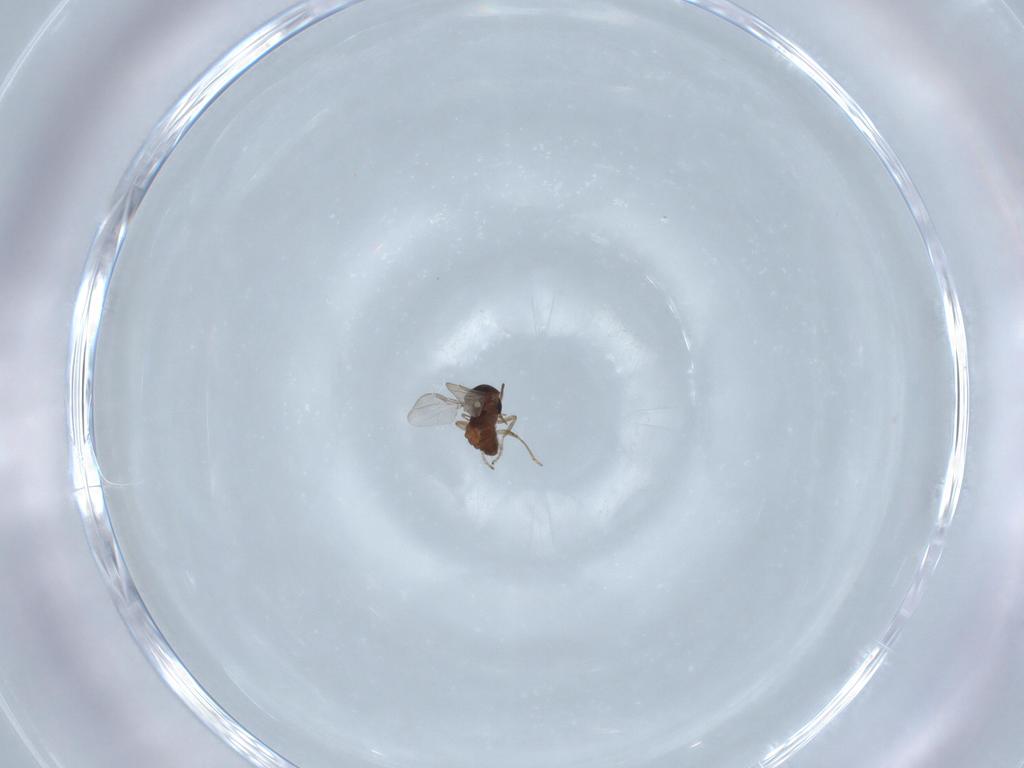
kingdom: Animalia
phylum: Arthropoda
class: Insecta
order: Diptera
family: Ceratopogonidae
